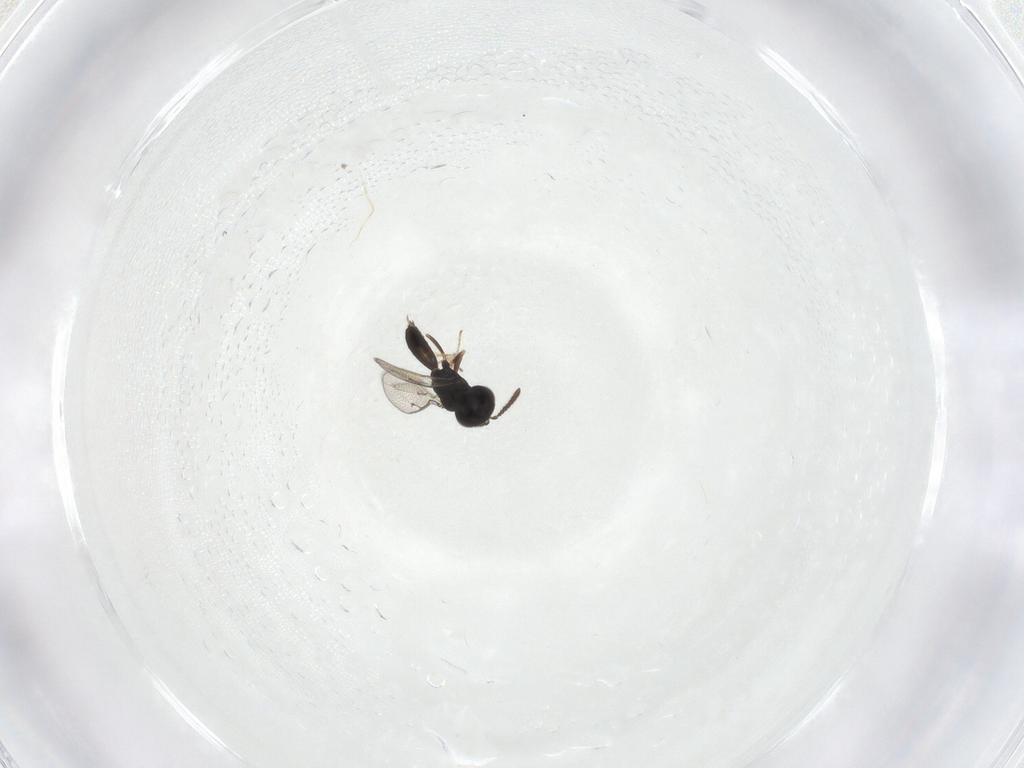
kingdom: Animalia
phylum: Arthropoda
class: Insecta
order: Hymenoptera
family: Pteromalidae
